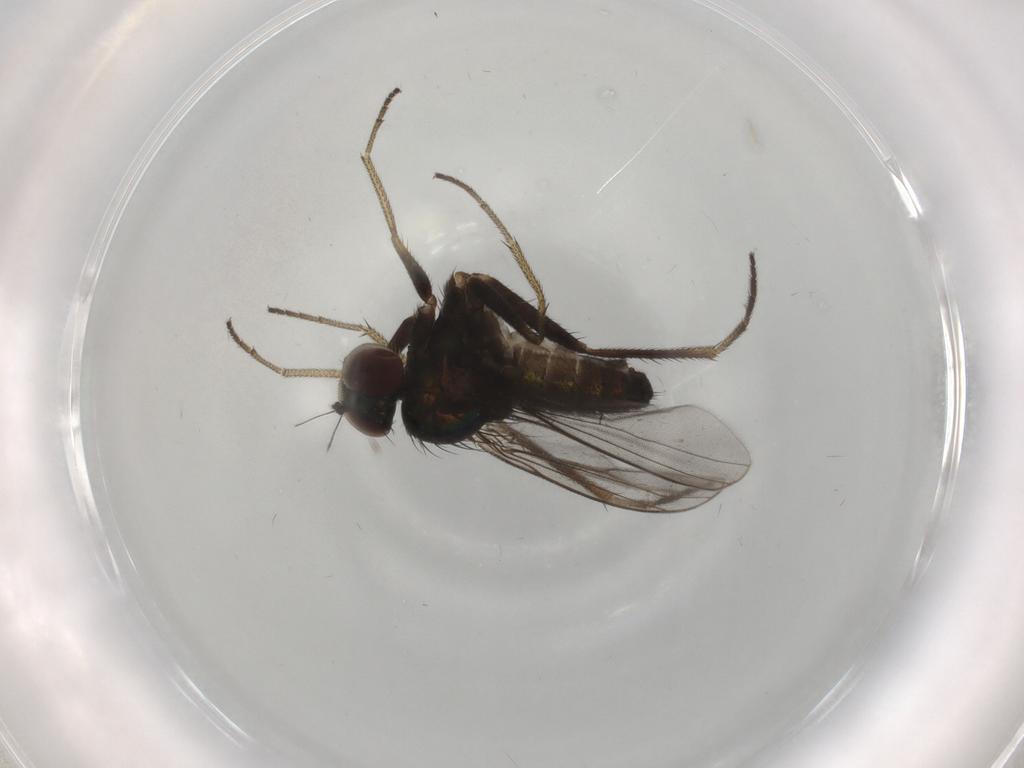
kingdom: Animalia
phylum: Arthropoda
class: Insecta
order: Diptera
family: Dolichopodidae
